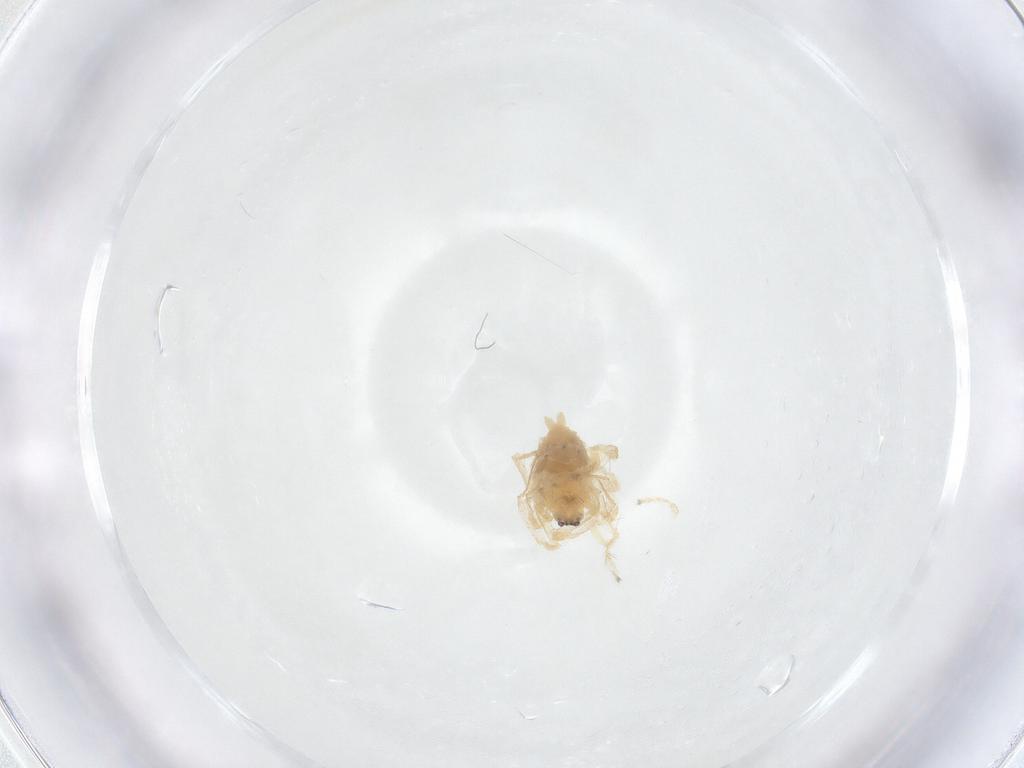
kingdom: Animalia
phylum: Arthropoda
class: Arachnida
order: Araneae
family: Anyphaenidae
